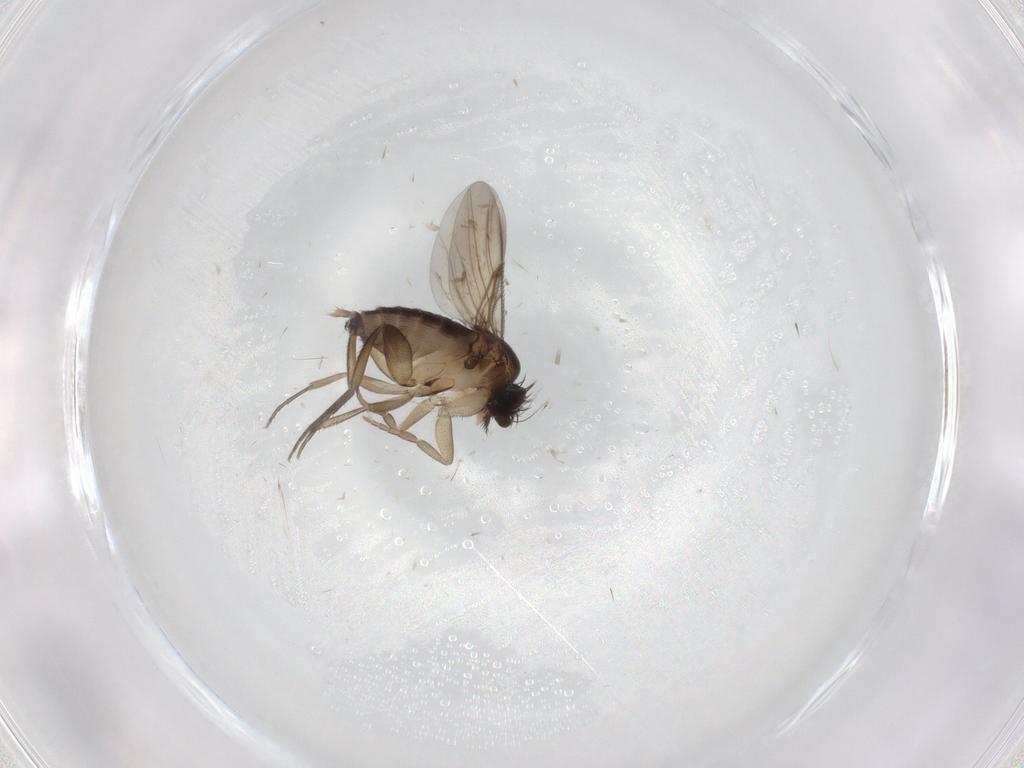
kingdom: Animalia
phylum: Arthropoda
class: Insecta
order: Diptera
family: Phoridae
